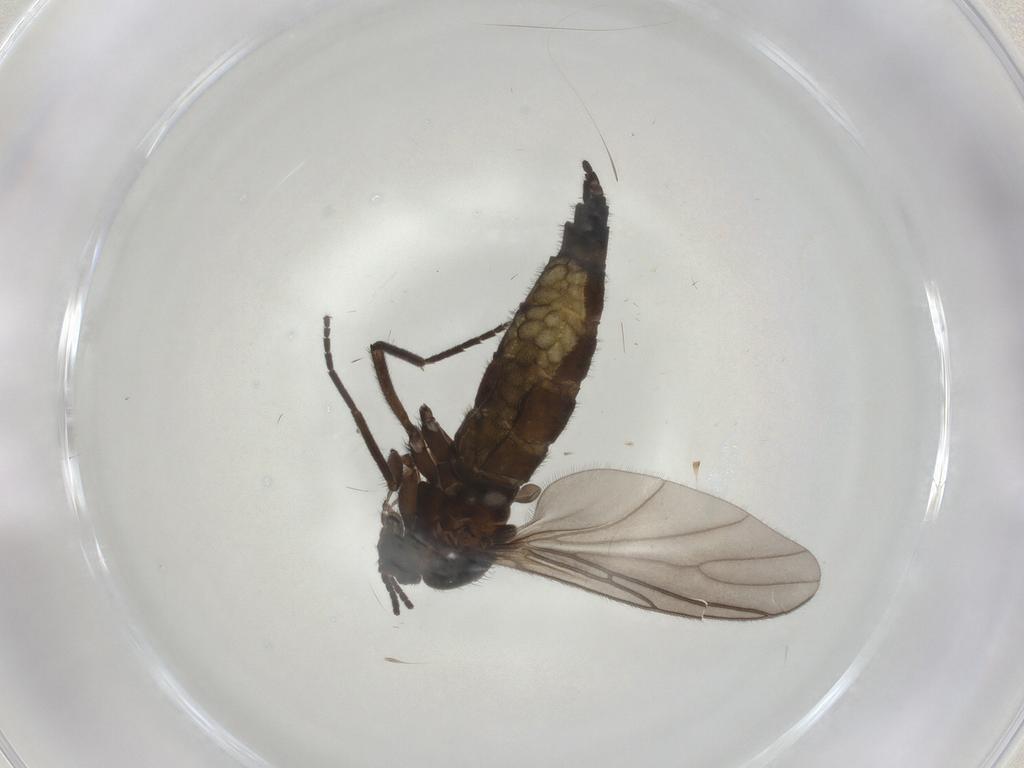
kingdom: Animalia
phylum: Arthropoda
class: Insecta
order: Diptera
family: Sciaridae
